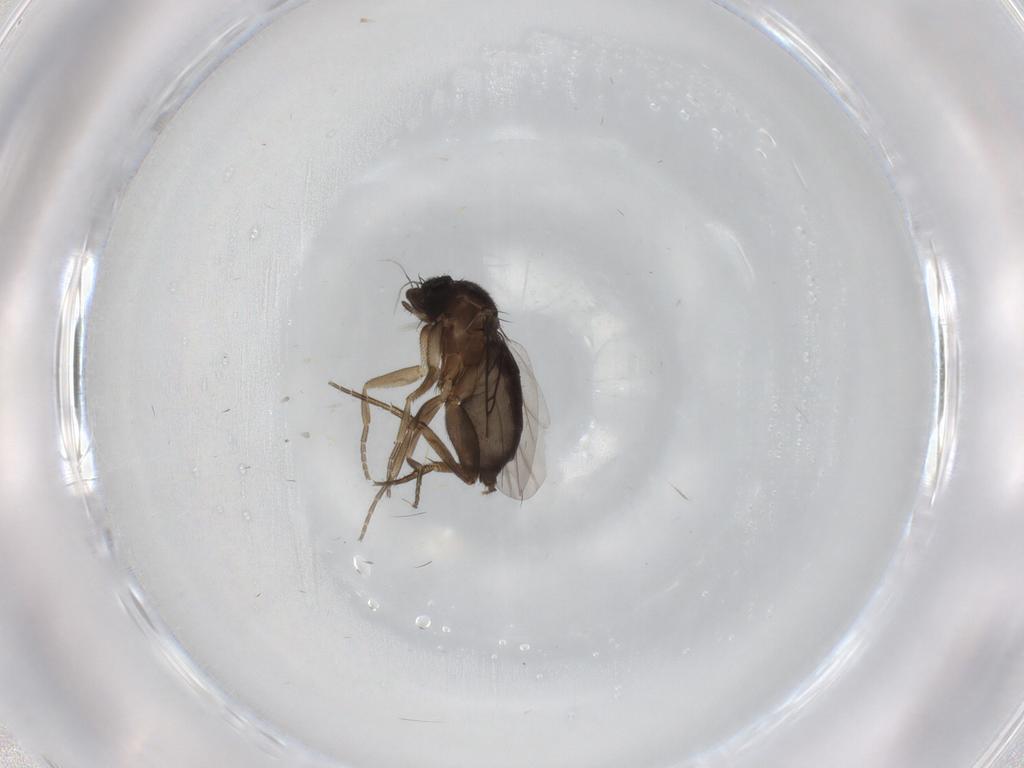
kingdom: Animalia
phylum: Arthropoda
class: Insecta
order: Diptera
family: Phoridae
